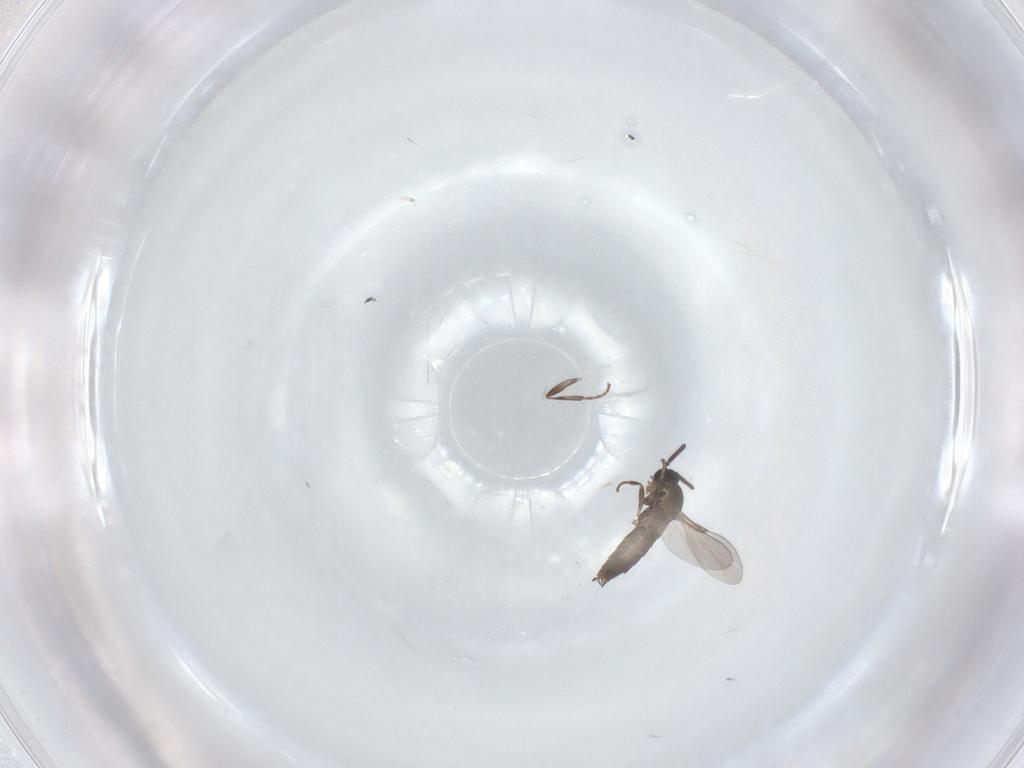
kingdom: Animalia
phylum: Arthropoda
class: Insecta
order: Diptera
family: Scatopsidae
